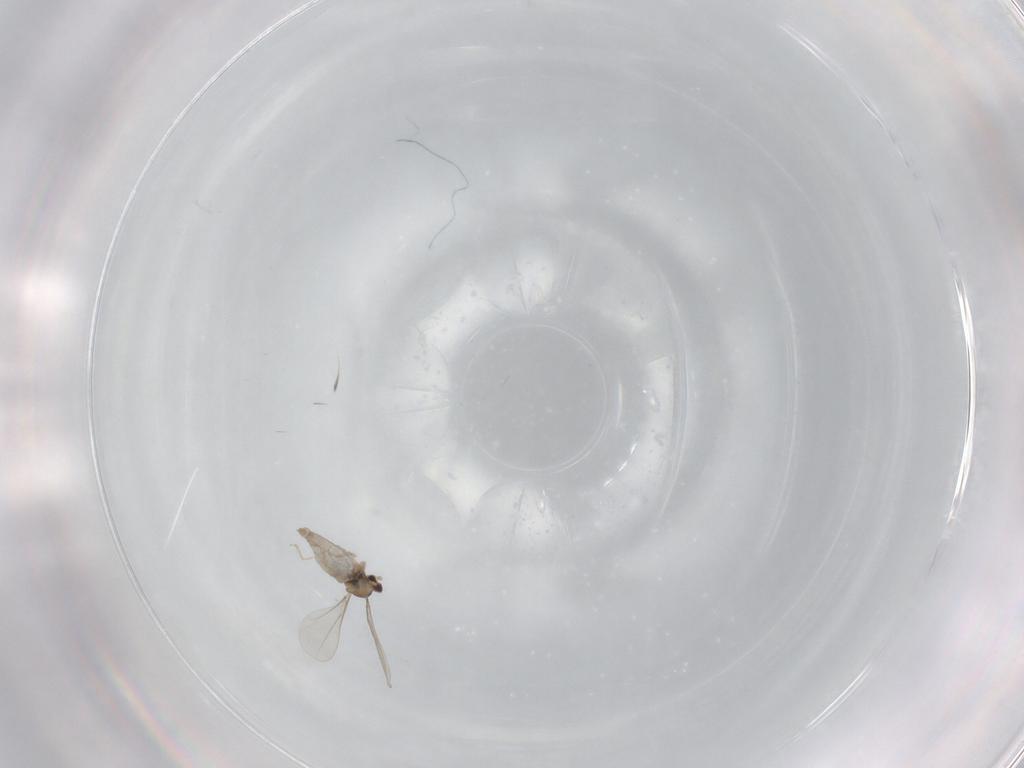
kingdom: Animalia
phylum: Arthropoda
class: Insecta
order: Diptera
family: Cecidomyiidae
